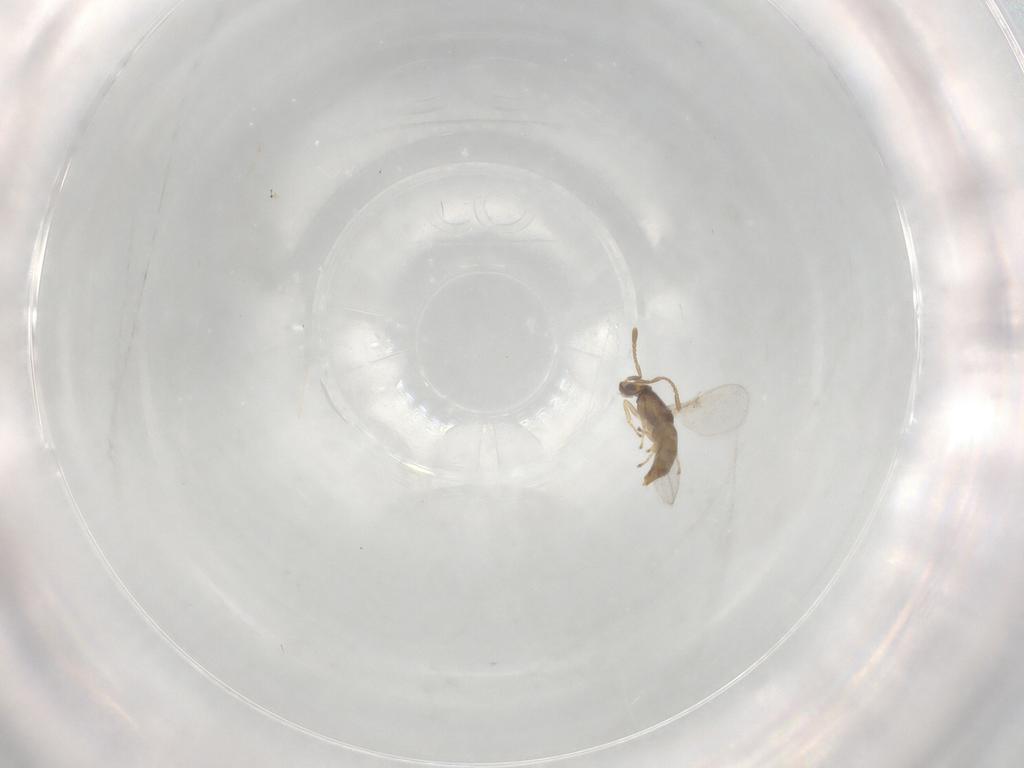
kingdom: Animalia
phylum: Arthropoda
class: Insecta
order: Hymenoptera
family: Encyrtidae
